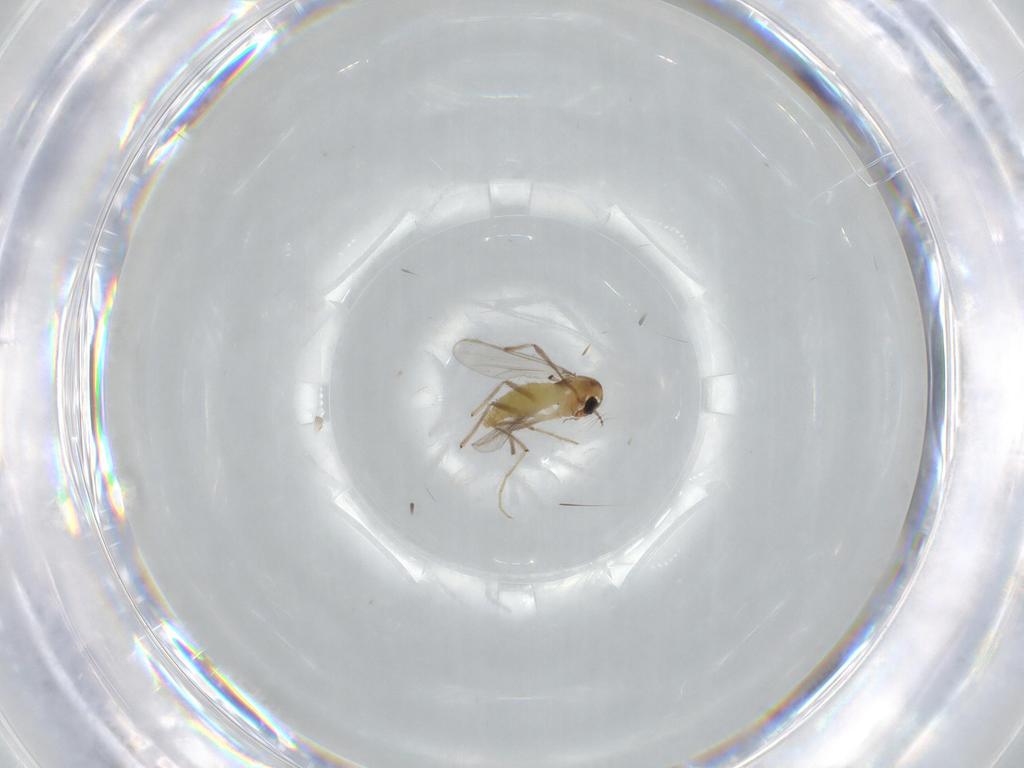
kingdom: Animalia
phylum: Arthropoda
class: Insecta
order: Diptera
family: Chironomidae
